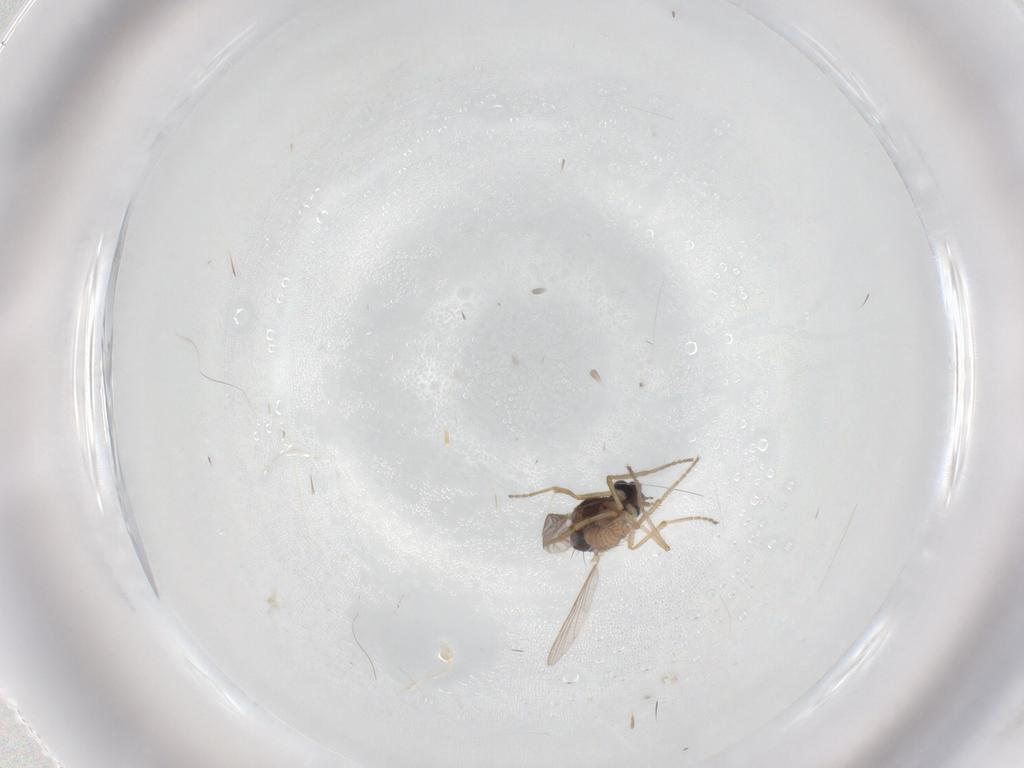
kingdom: Animalia
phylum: Arthropoda
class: Insecta
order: Diptera
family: Ceratopogonidae
